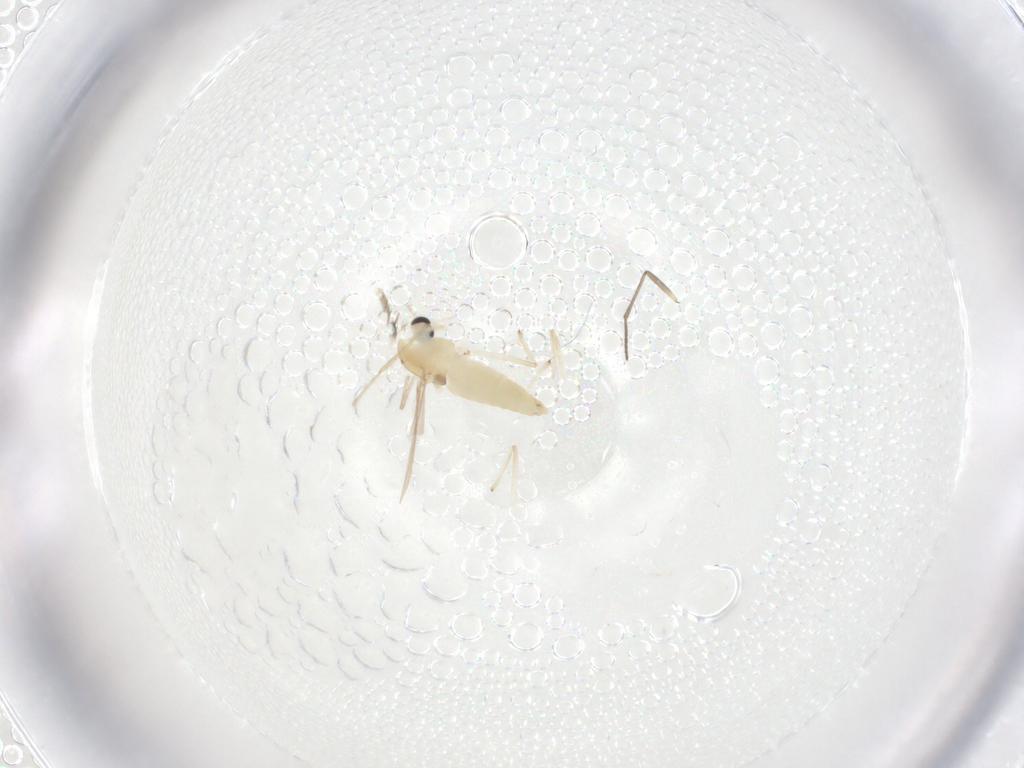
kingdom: Animalia
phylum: Arthropoda
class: Insecta
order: Diptera
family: Chironomidae
